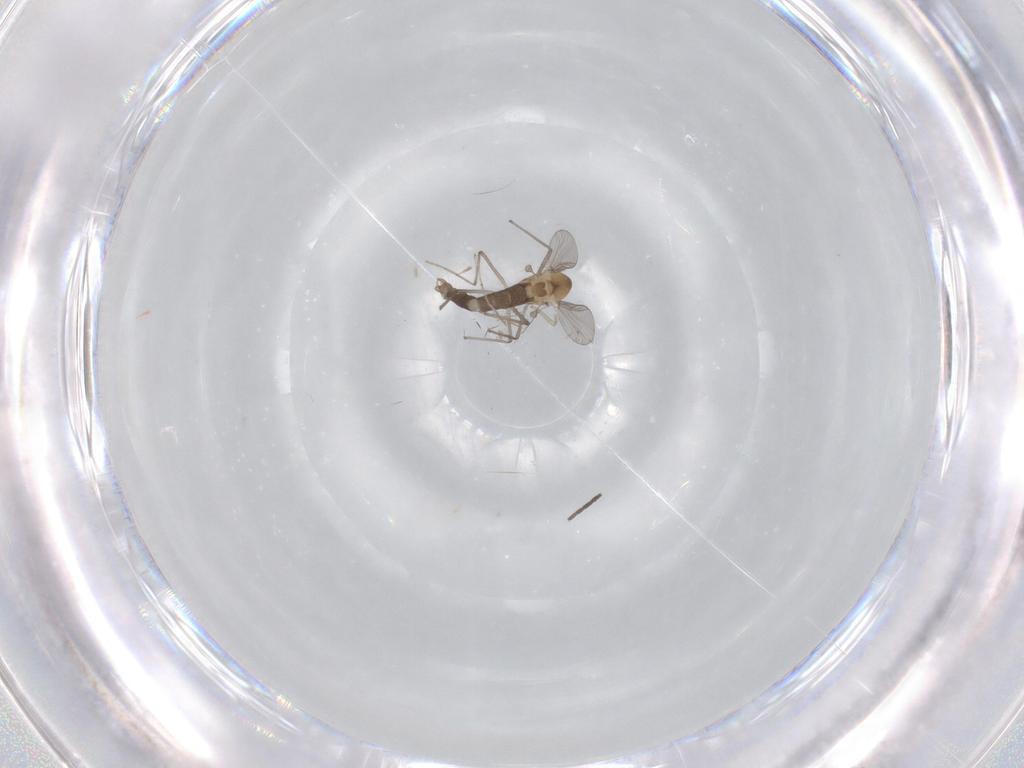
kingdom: Animalia
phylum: Arthropoda
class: Insecta
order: Diptera
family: Chironomidae
